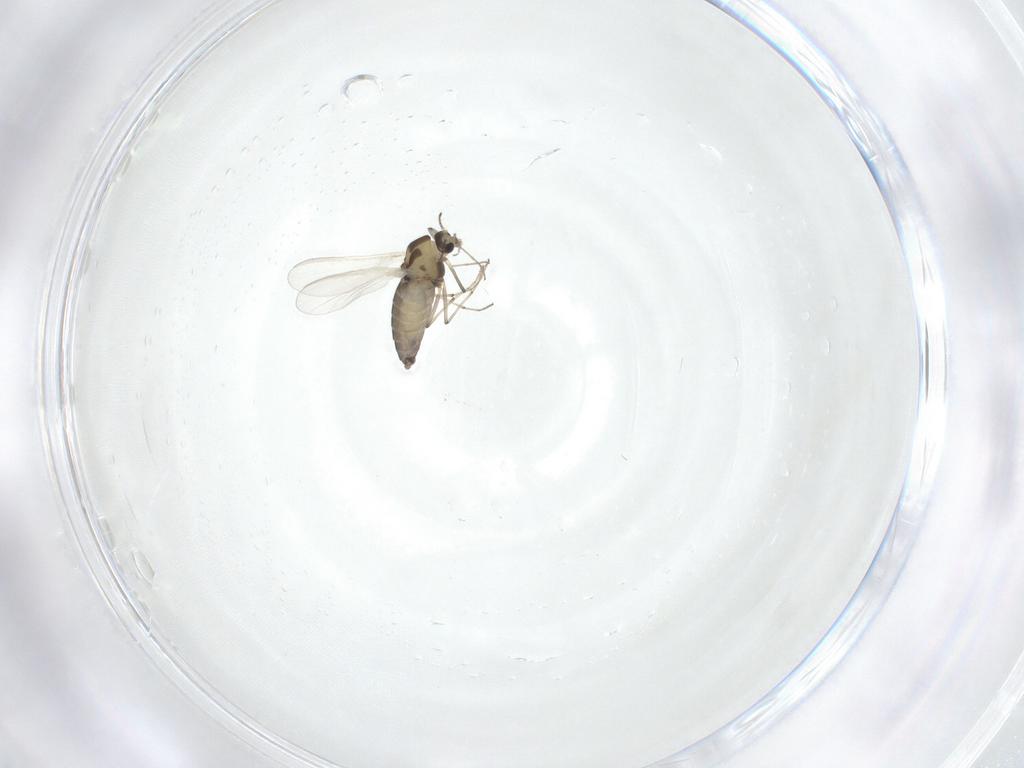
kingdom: Animalia
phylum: Arthropoda
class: Insecta
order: Diptera
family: Chironomidae
